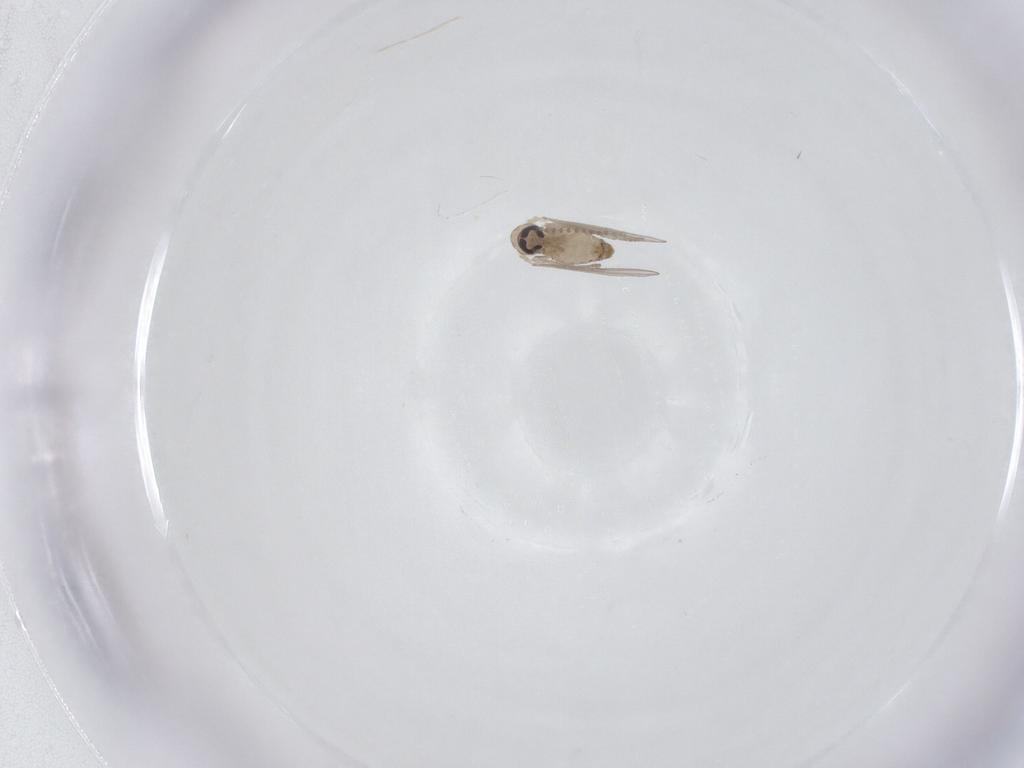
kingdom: Animalia
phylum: Arthropoda
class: Insecta
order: Diptera
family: Psychodidae
